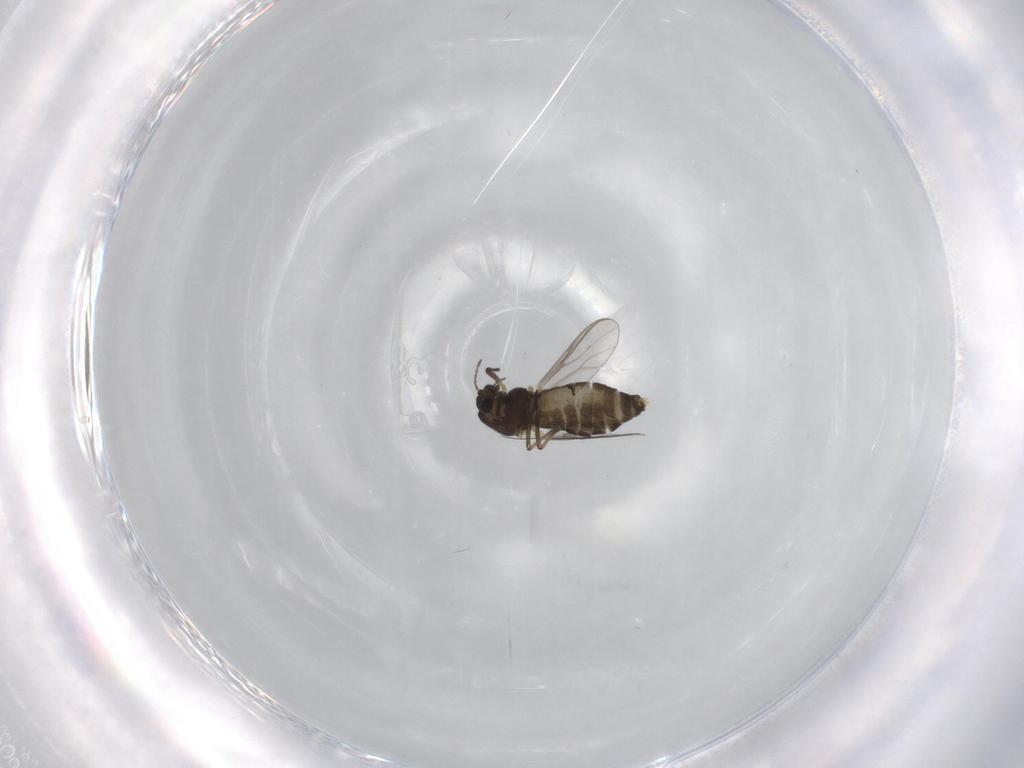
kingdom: Animalia
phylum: Arthropoda
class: Insecta
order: Diptera
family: Chironomidae
